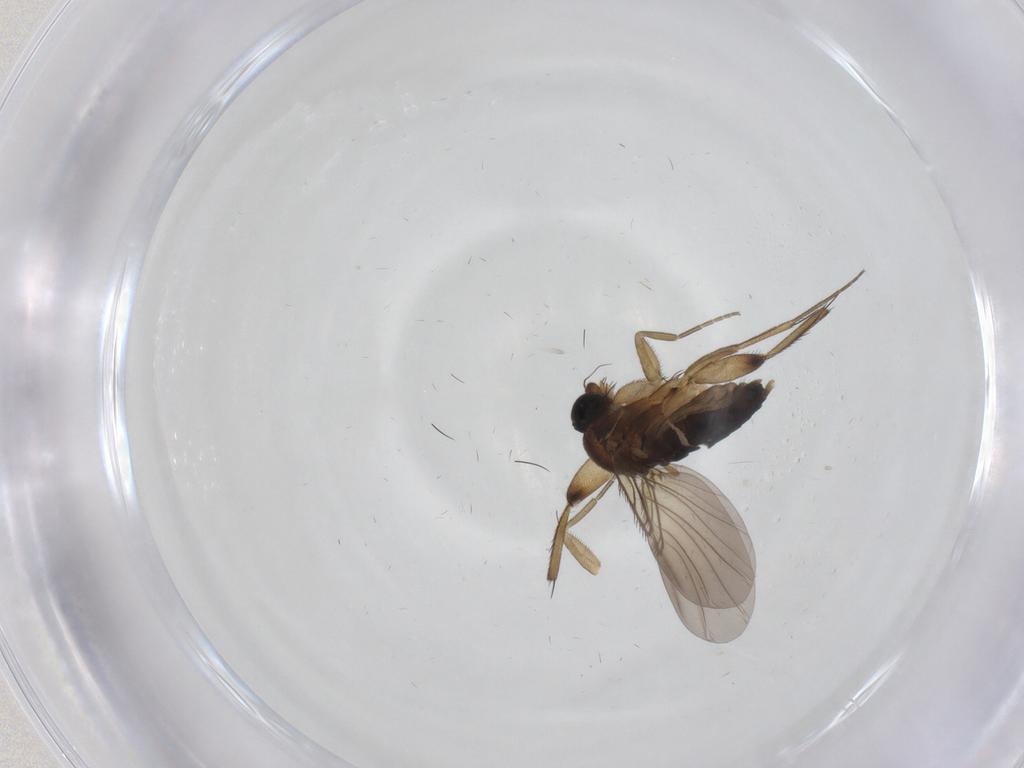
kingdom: Animalia
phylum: Arthropoda
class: Insecta
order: Diptera
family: Phoridae
